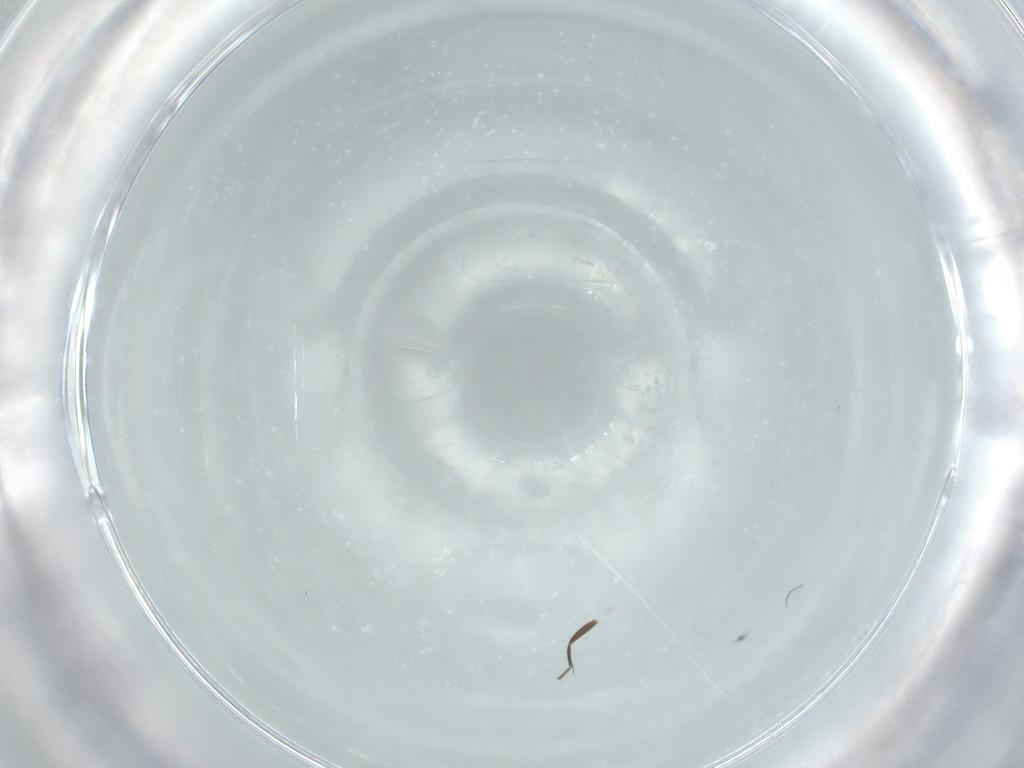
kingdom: Animalia
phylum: Arthropoda
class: Insecta
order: Diptera
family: Phoridae
